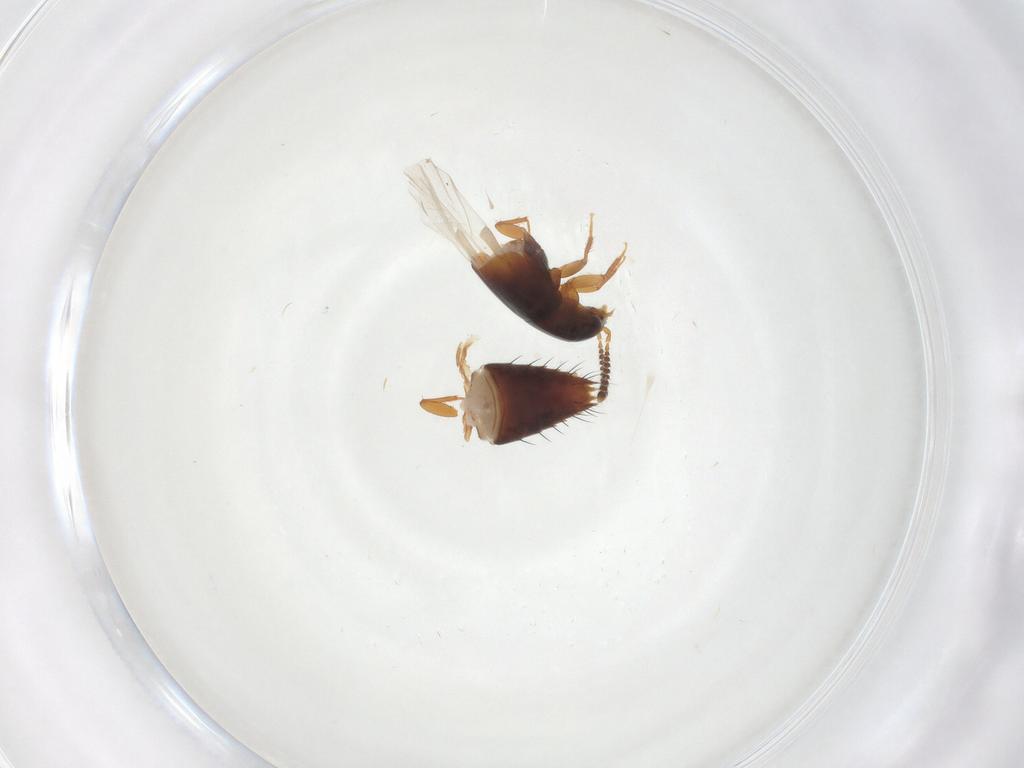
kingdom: Animalia
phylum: Arthropoda
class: Insecta
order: Coleoptera
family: Staphylinidae
